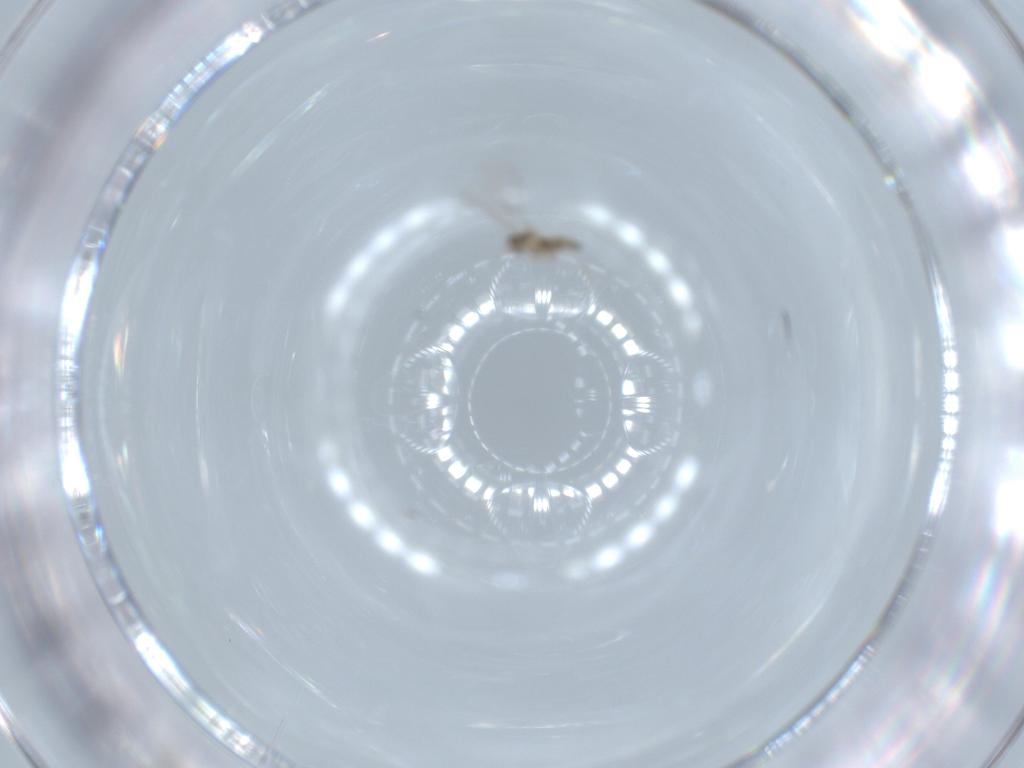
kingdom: Animalia
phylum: Arthropoda
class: Insecta
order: Diptera
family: Cecidomyiidae
